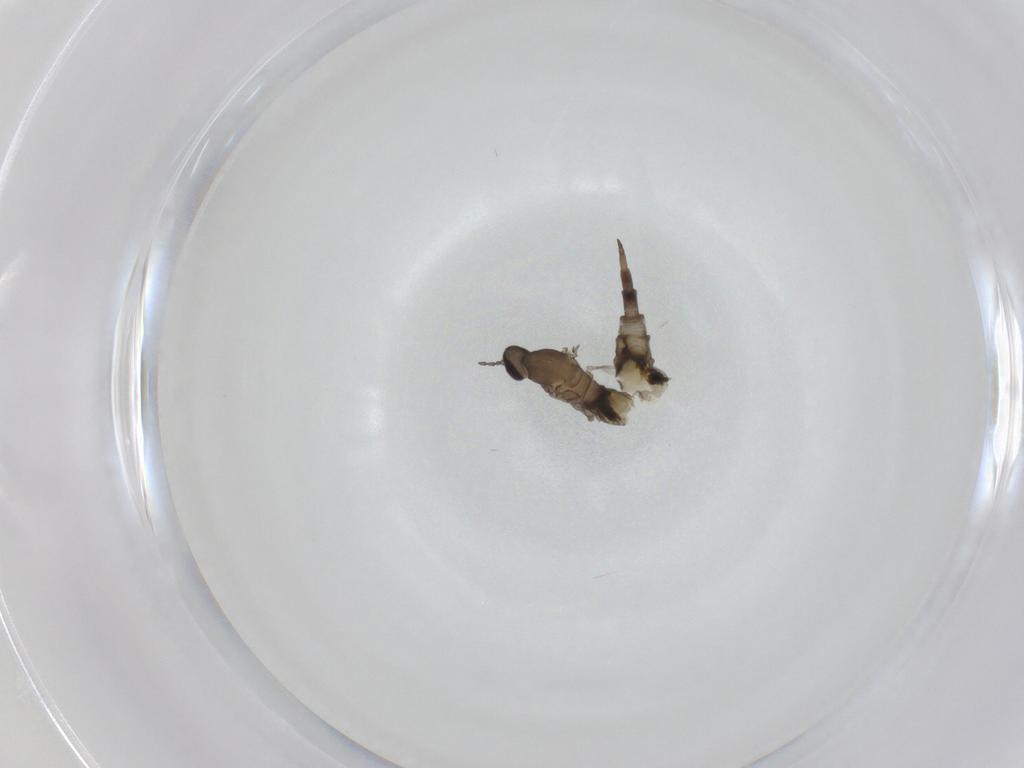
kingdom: Animalia
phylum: Arthropoda
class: Insecta
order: Diptera
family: Cecidomyiidae
